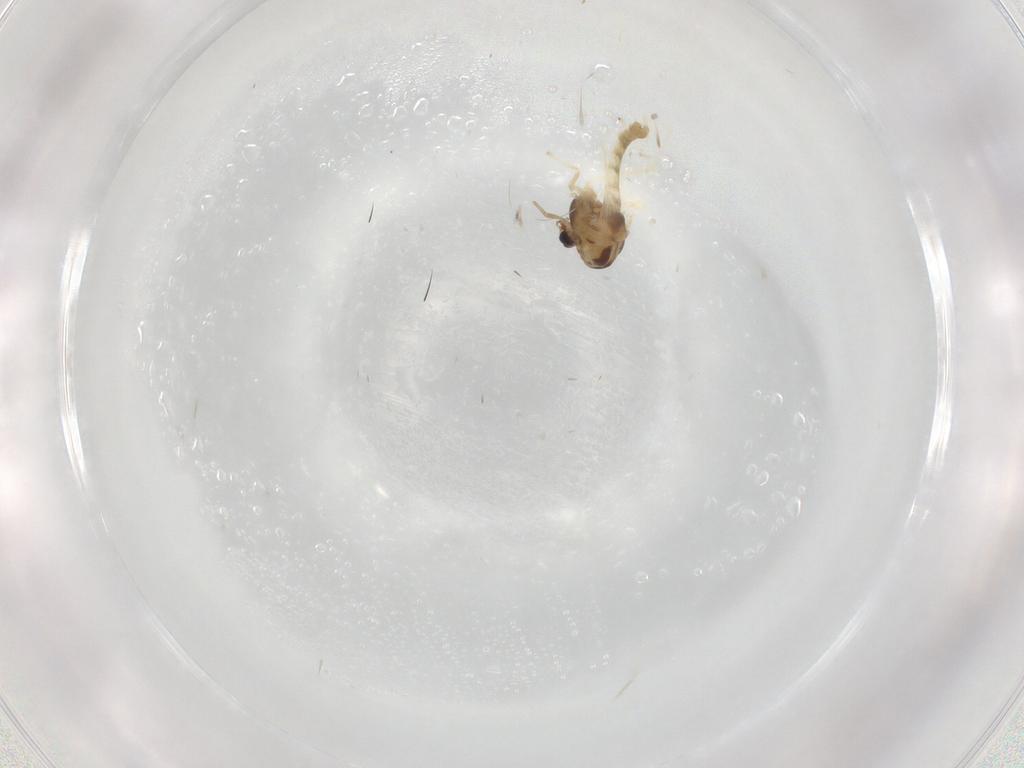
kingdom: Animalia
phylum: Arthropoda
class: Insecta
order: Diptera
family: Chironomidae
